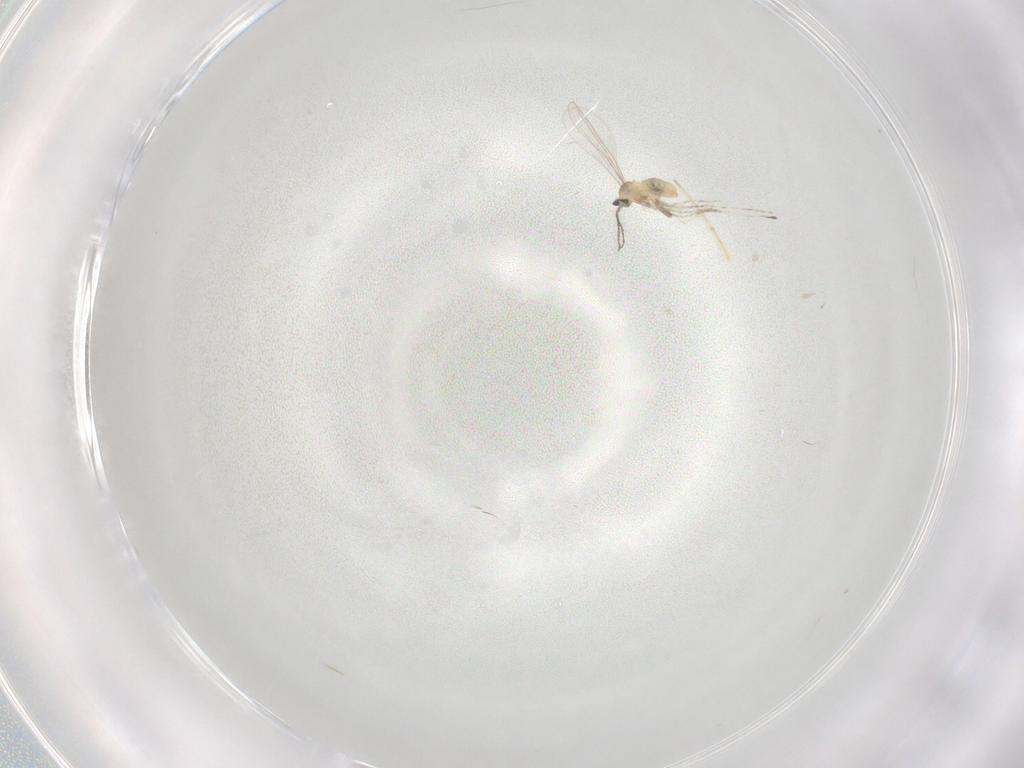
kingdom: Animalia
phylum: Arthropoda
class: Insecta
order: Diptera
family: Cecidomyiidae
